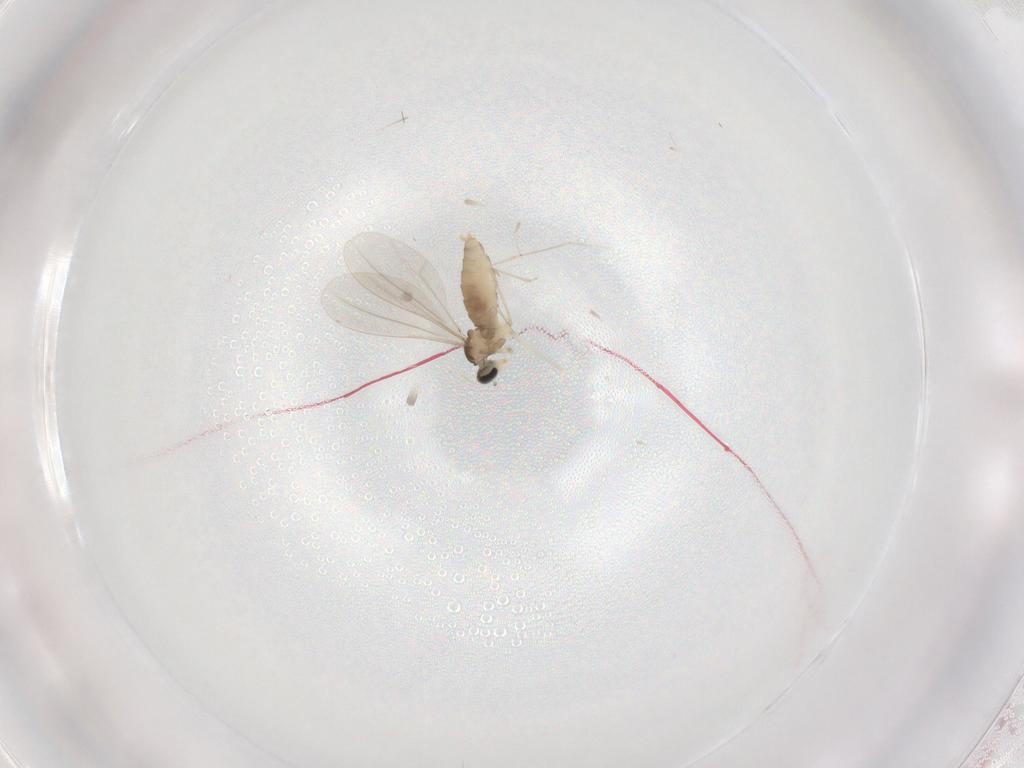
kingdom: Animalia
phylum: Arthropoda
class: Insecta
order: Diptera
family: Cecidomyiidae
